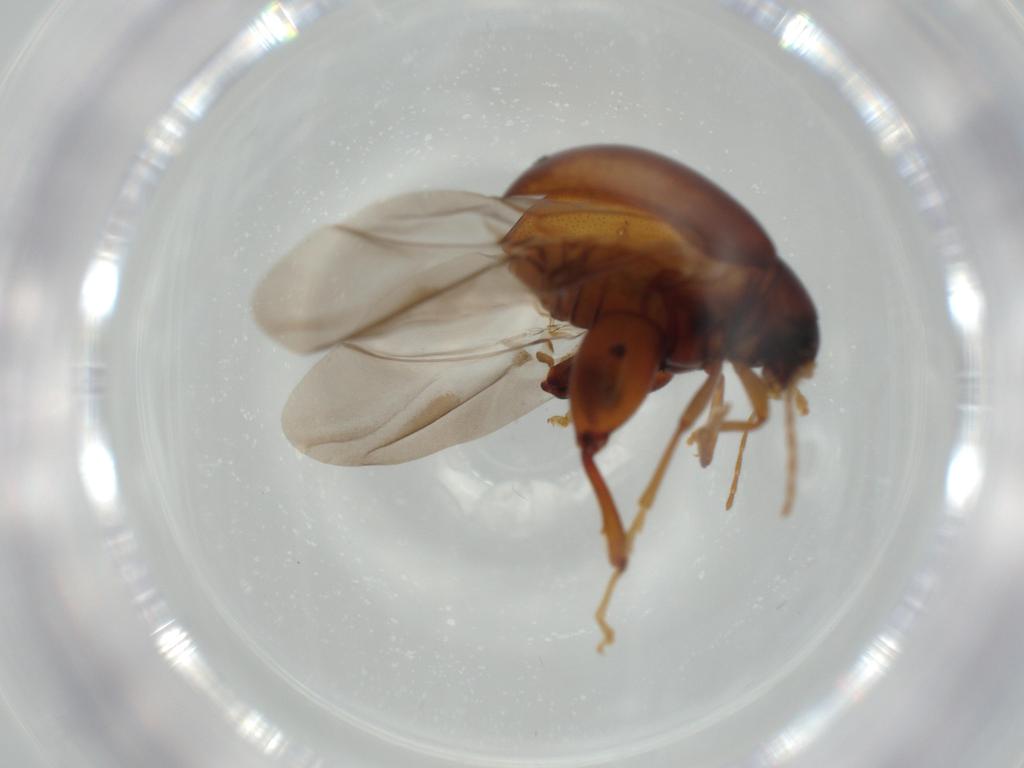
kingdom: Animalia
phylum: Arthropoda
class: Insecta
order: Coleoptera
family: Chrysomelidae
